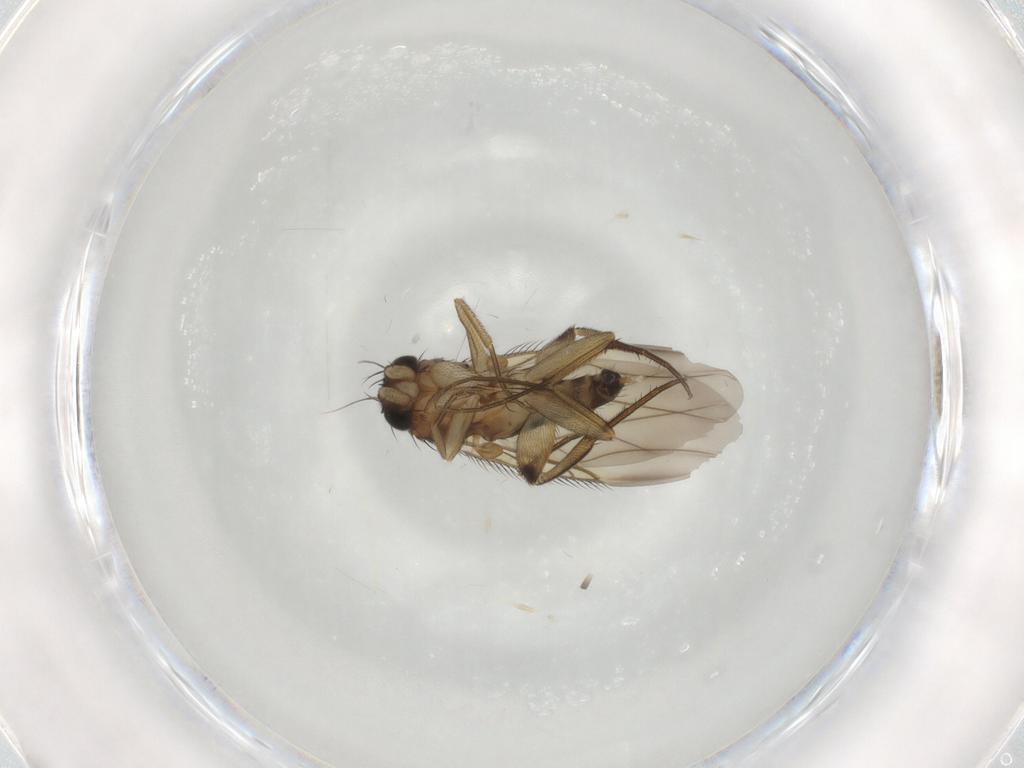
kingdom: Animalia
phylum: Arthropoda
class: Insecta
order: Diptera
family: Phoridae
